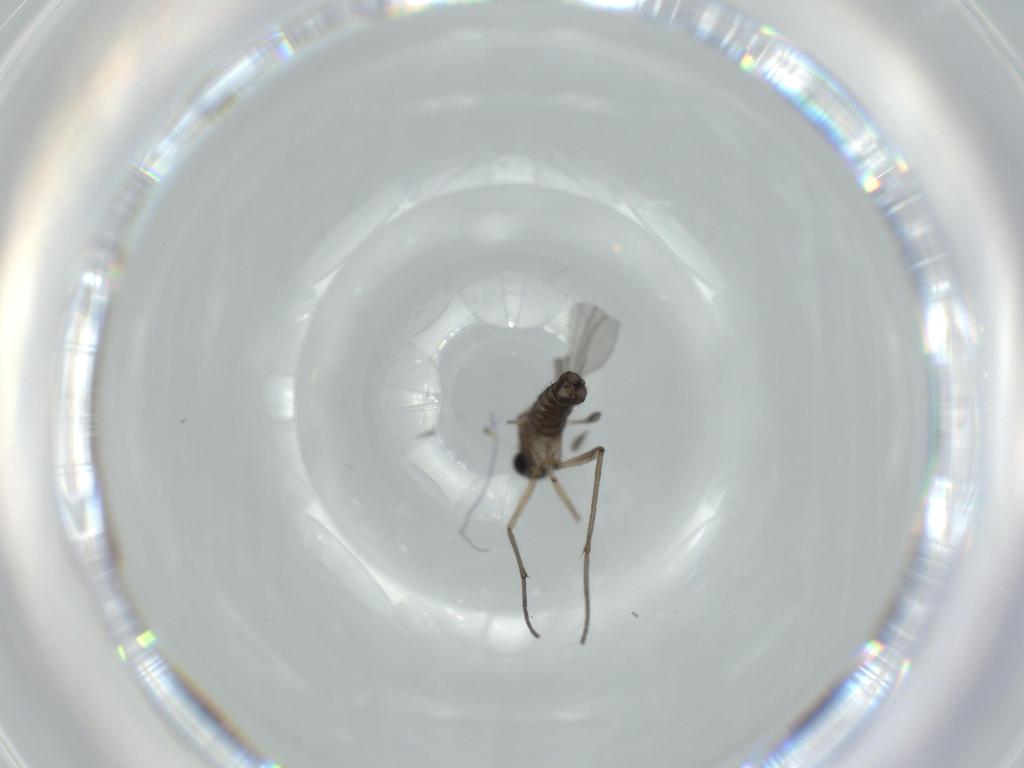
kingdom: Animalia
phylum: Arthropoda
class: Insecta
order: Diptera
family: Sciaridae
